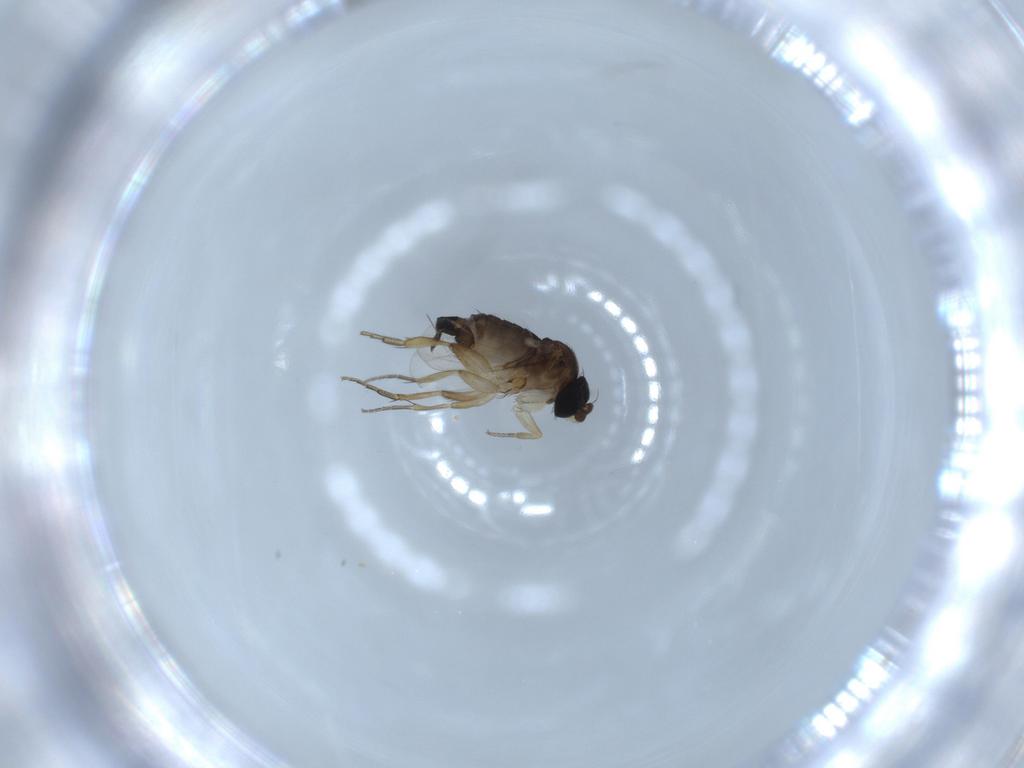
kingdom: Animalia
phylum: Arthropoda
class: Insecta
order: Diptera
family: Phoridae
